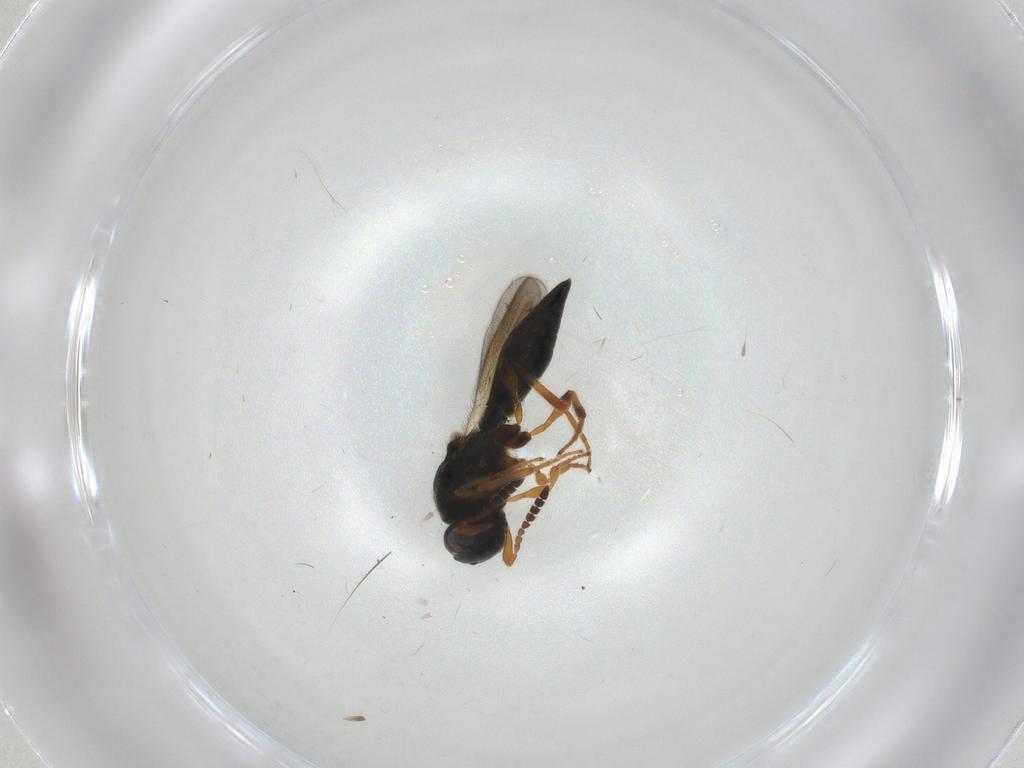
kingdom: Animalia
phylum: Arthropoda
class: Insecta
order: Hymenoptera
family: Platygastridae
